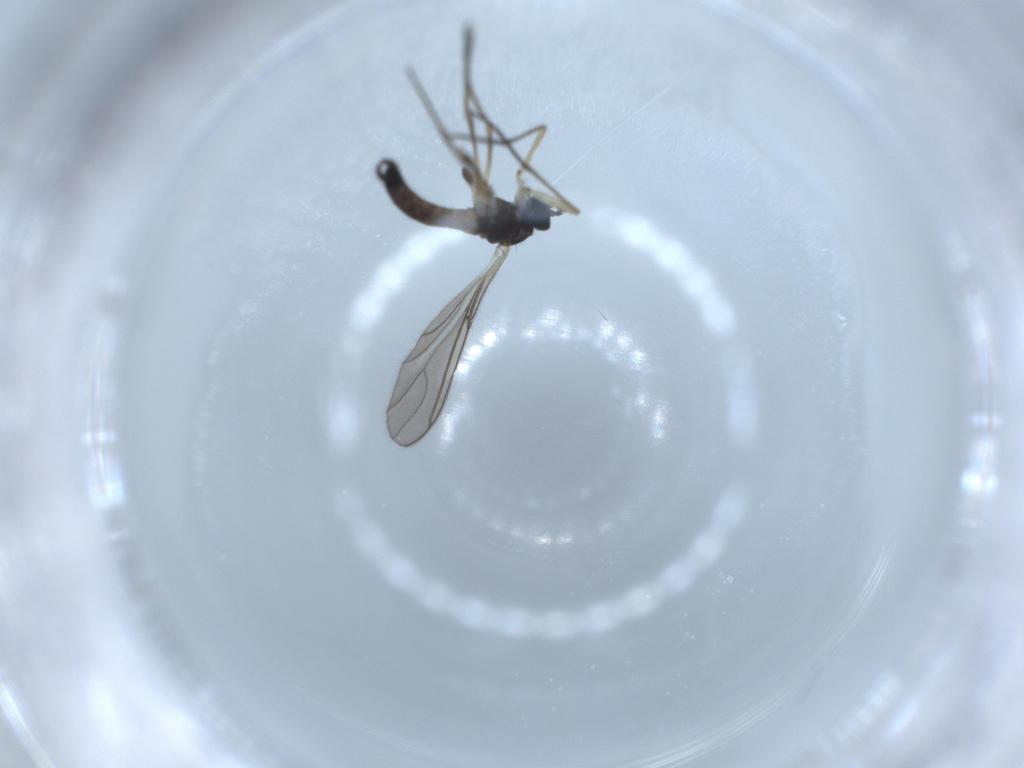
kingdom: Animalia
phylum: Arthropoda
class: Insecta
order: Diptera
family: Sciaridae
